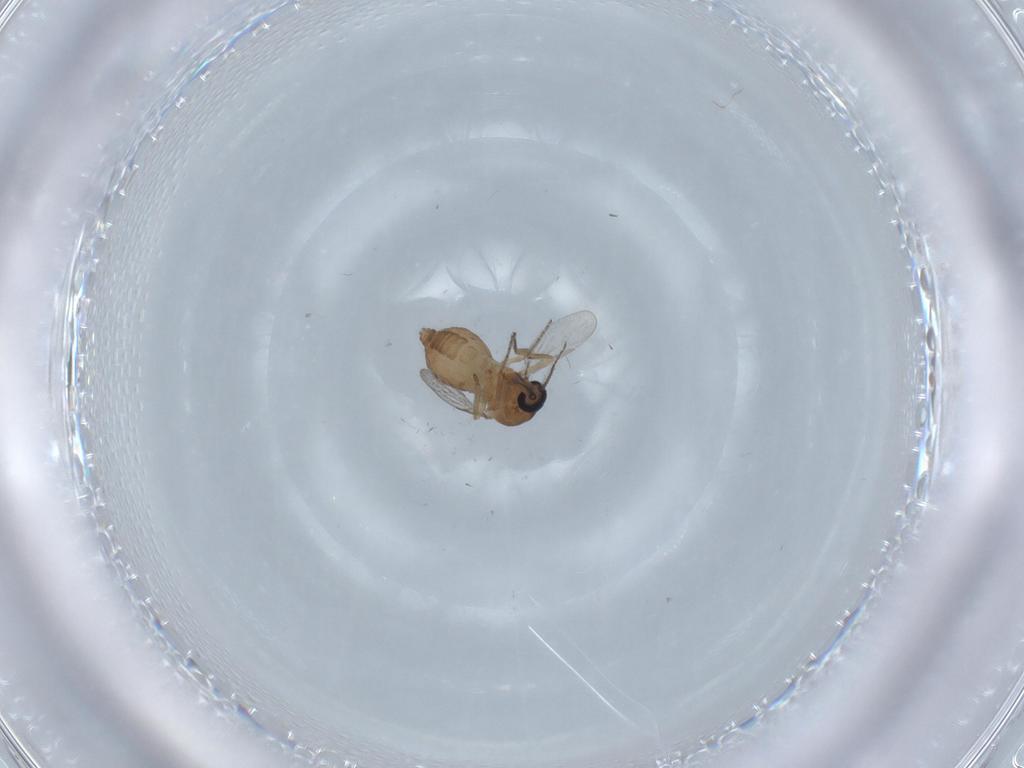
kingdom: Animalia
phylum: Arthropoda
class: Insecta
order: Diptera
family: Ceratopogonidae
